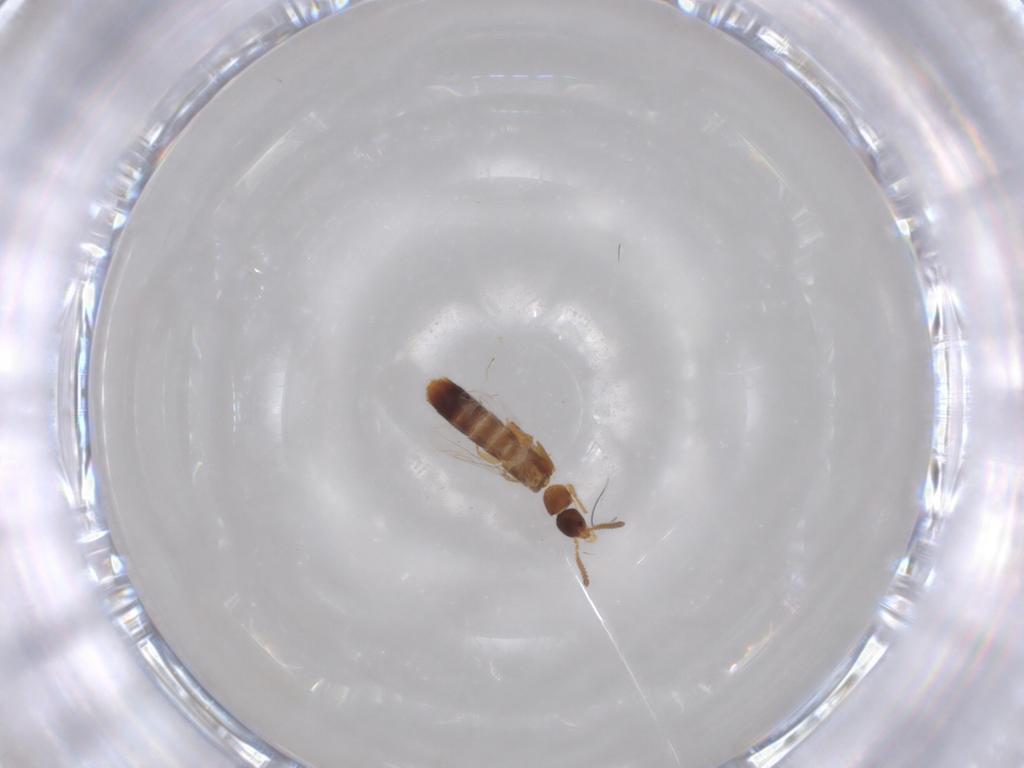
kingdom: Animalia
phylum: Arthropoda
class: Insecta
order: Coleoptera
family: Staphylinidae
